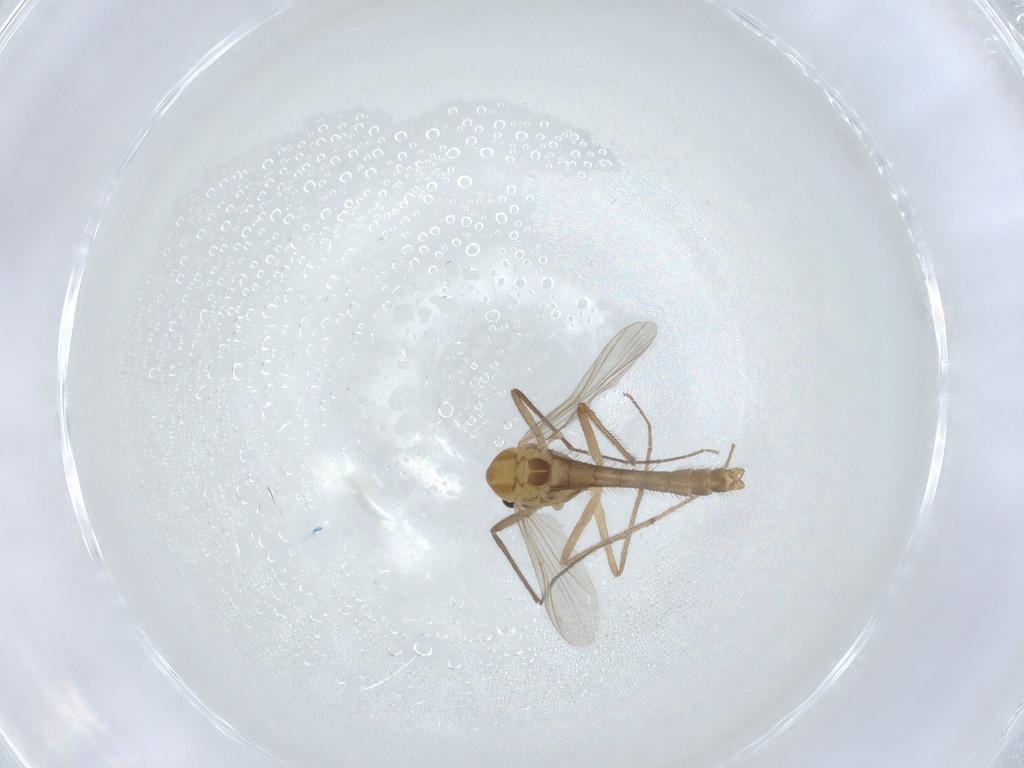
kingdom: Animalia
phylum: Arthropoda
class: Insecta
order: Diptera
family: Chironomidae
